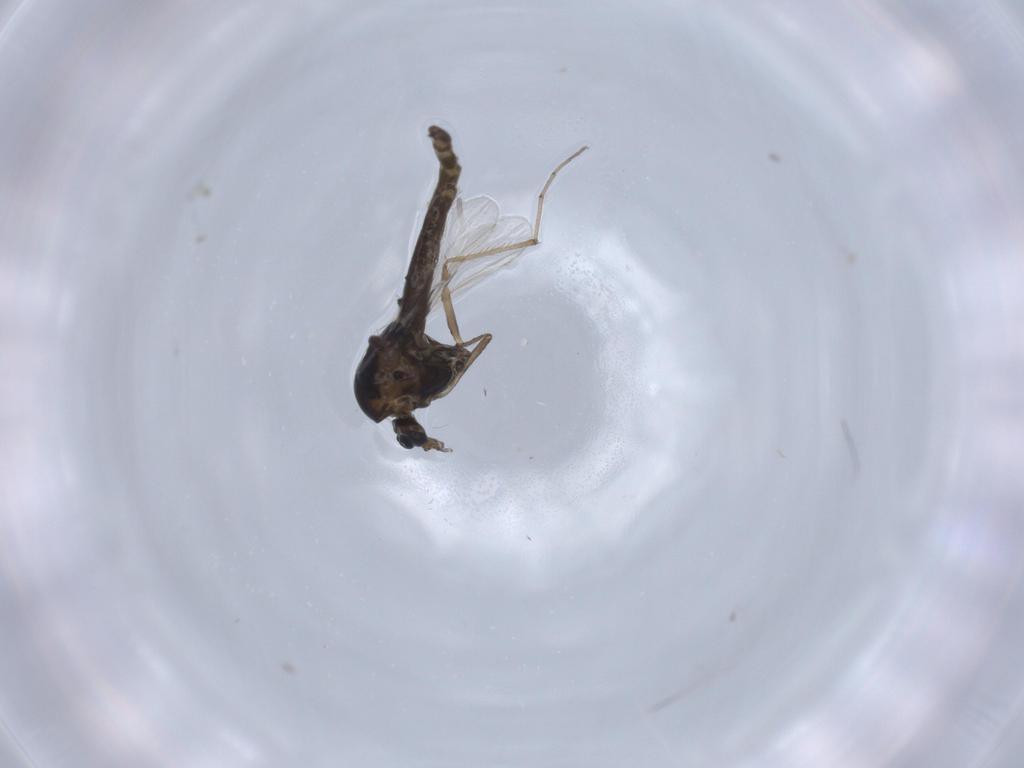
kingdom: Animalia
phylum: Arthropoda
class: Insecta
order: Diptera
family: Chironomidae
